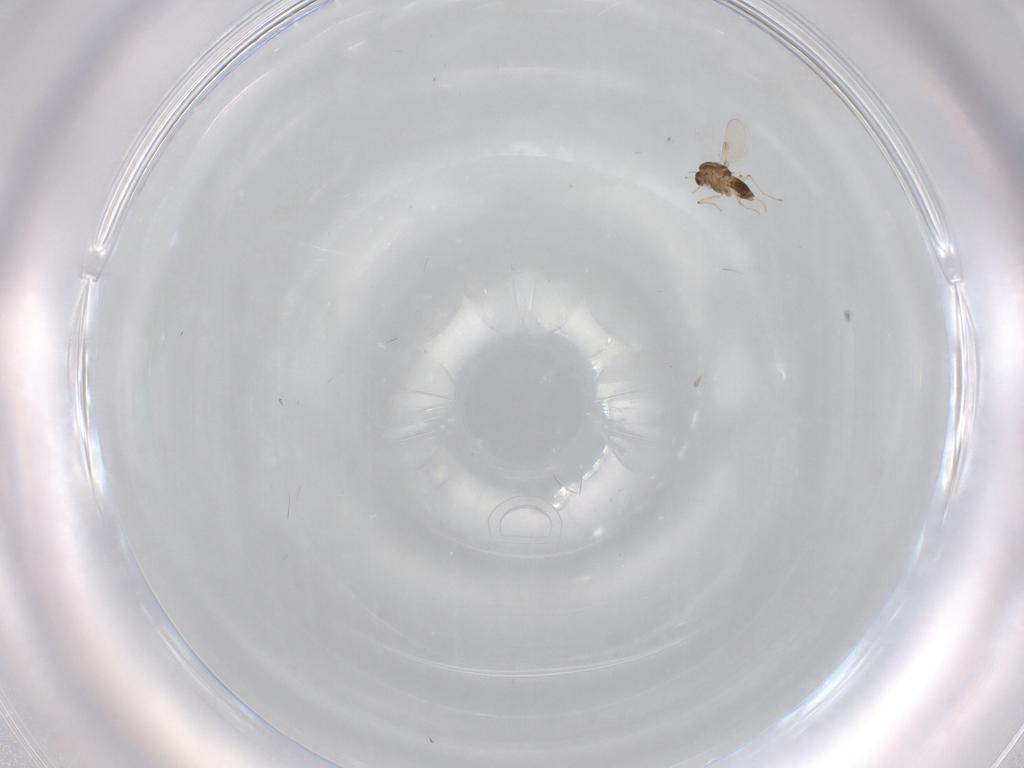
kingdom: Animalia
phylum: Arthropoda
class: Insecta
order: Diptera
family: Chironomidae
